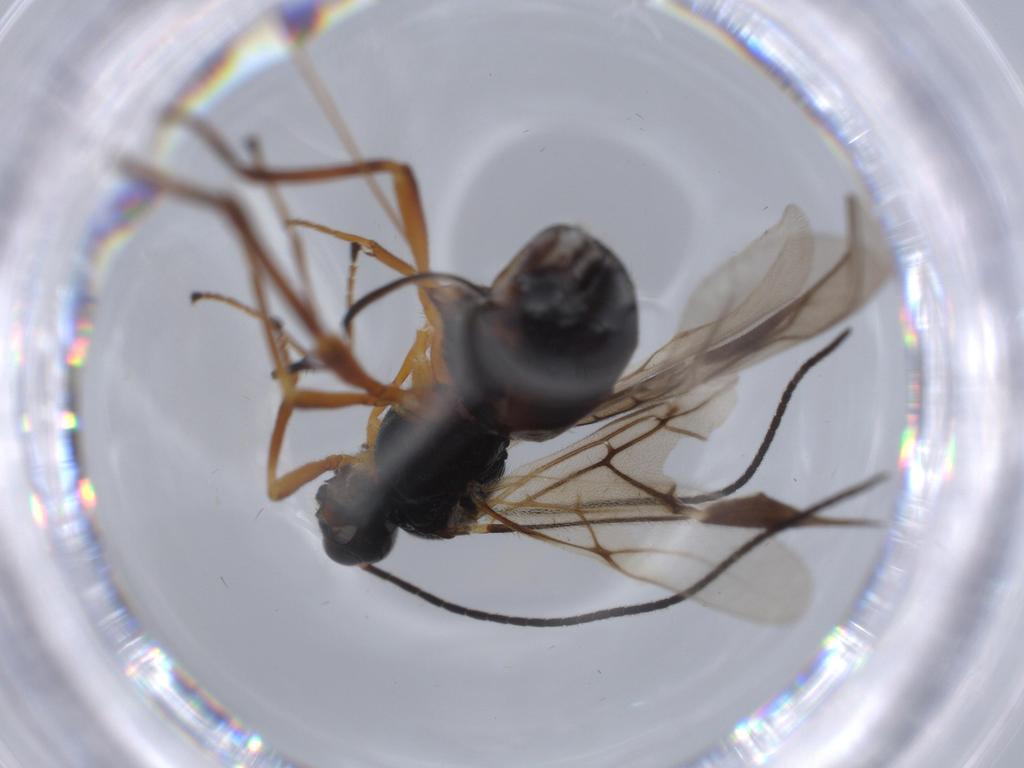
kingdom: Animalia
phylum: Arthropoda
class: Insecta
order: Hymenoptera
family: Braconidae
